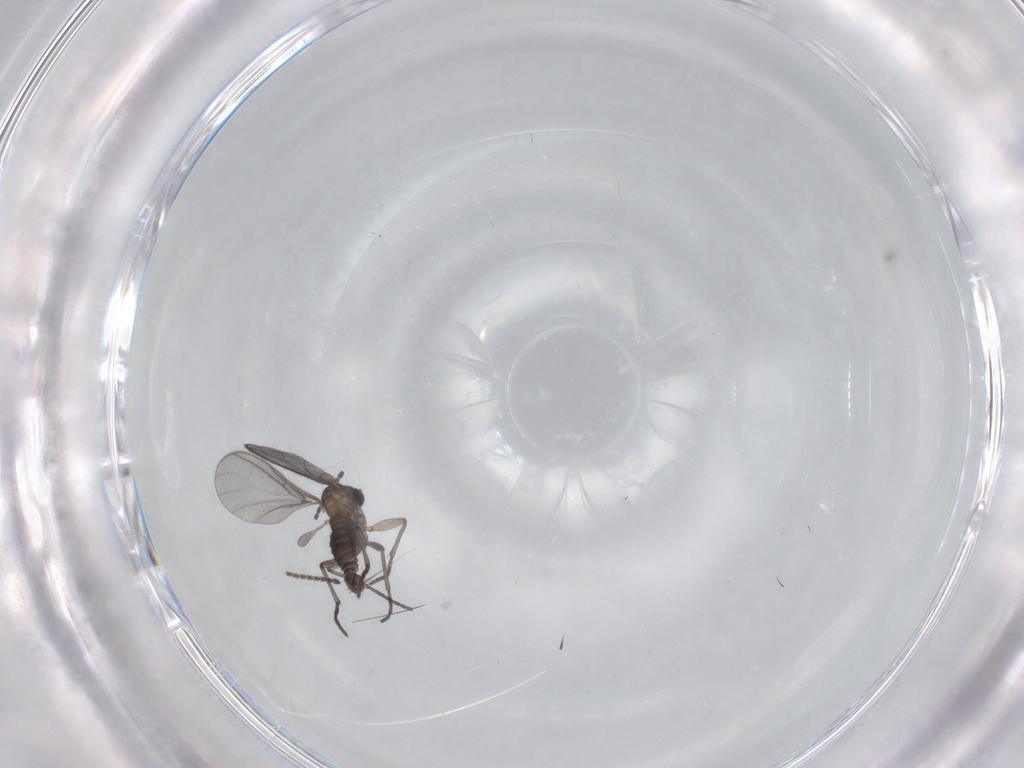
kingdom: Animalia
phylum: Arthropoda
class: Insecta
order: Diptera
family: Sciaridae
